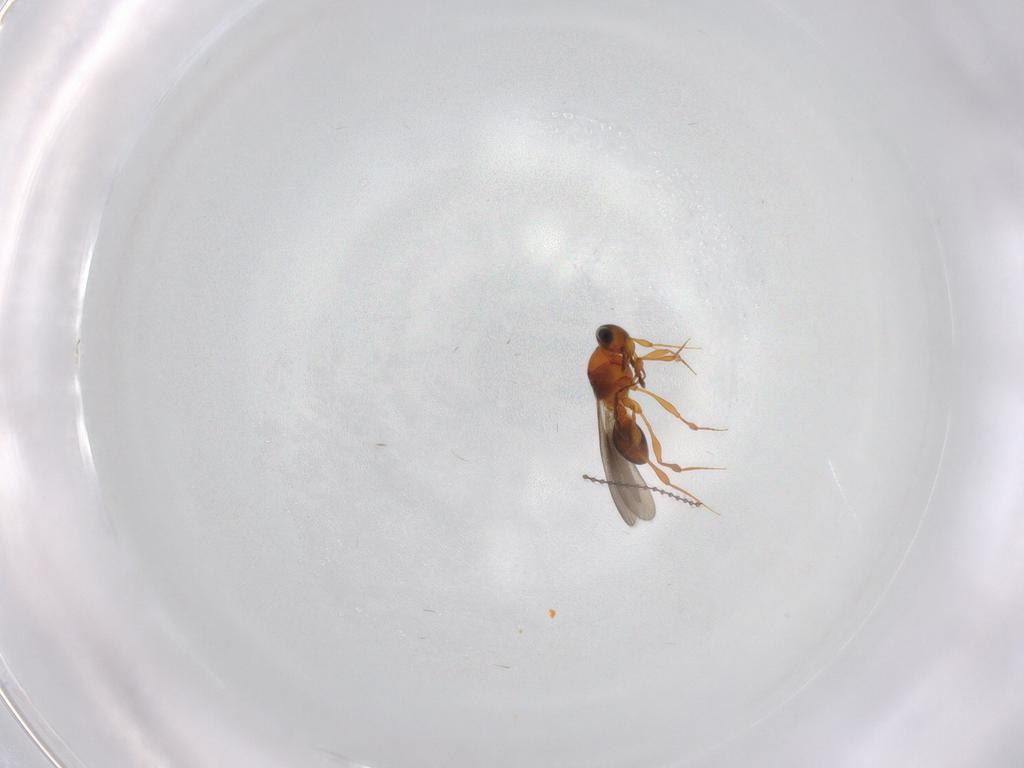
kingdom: Animalia
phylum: Arthropoda
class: Insecta
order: Hymenoptera
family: Platygastridae
